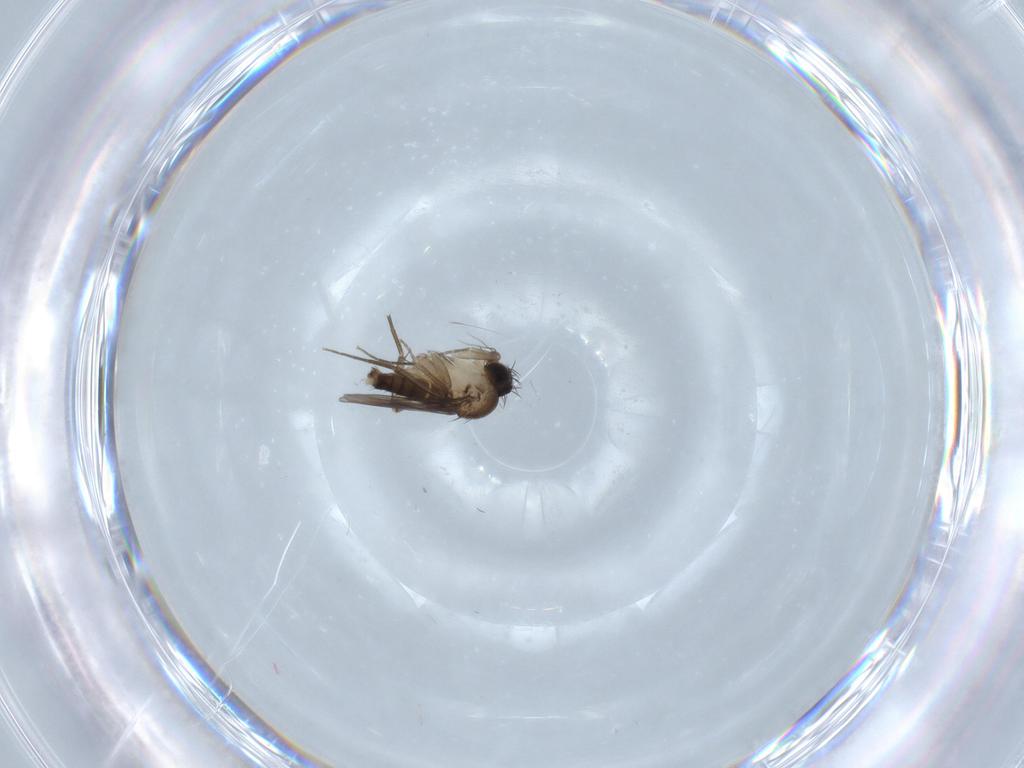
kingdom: Animalia
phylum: Arthropoda
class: Insecta
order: Diptera
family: Phoridae
